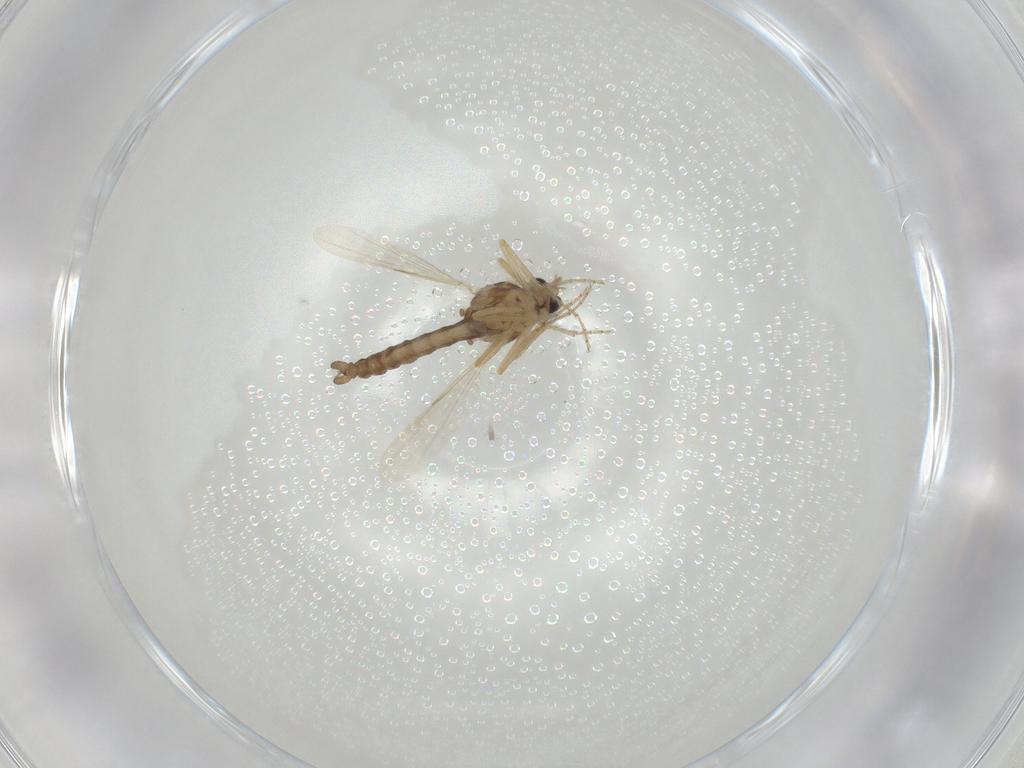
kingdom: Animalia
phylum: Arthropoda
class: Insecta
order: Diptera
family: Ceratopogonidae
